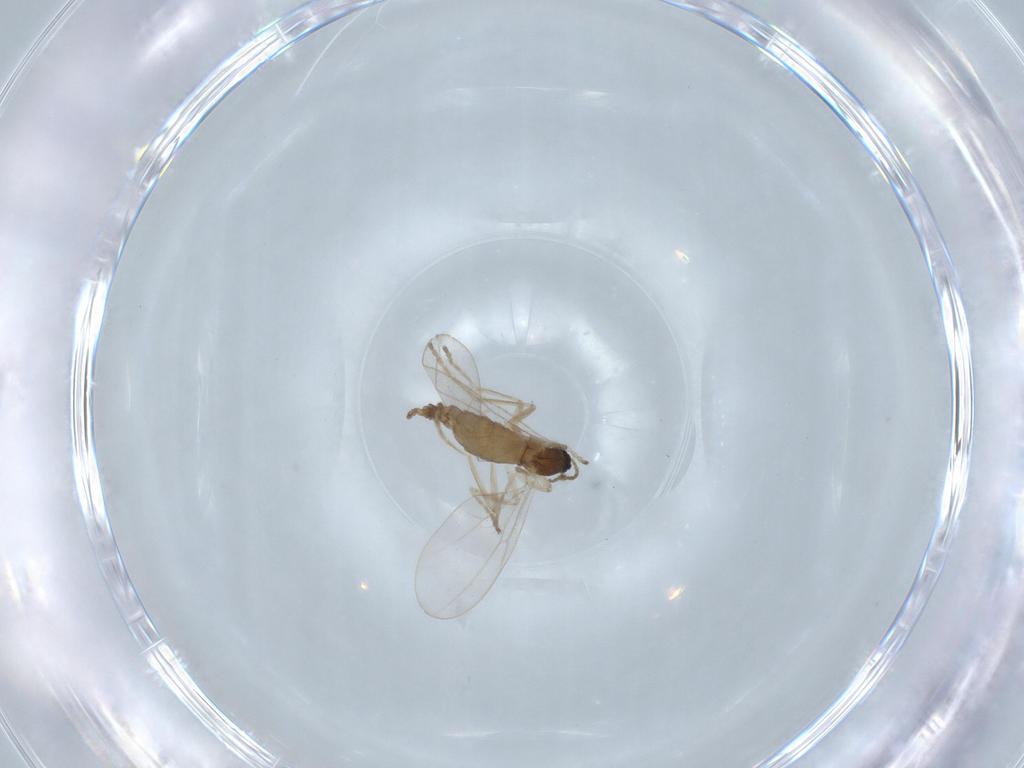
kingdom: Animalia
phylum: Arthropoda
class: Insecta
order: Diptera
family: Cecidomyiidae
